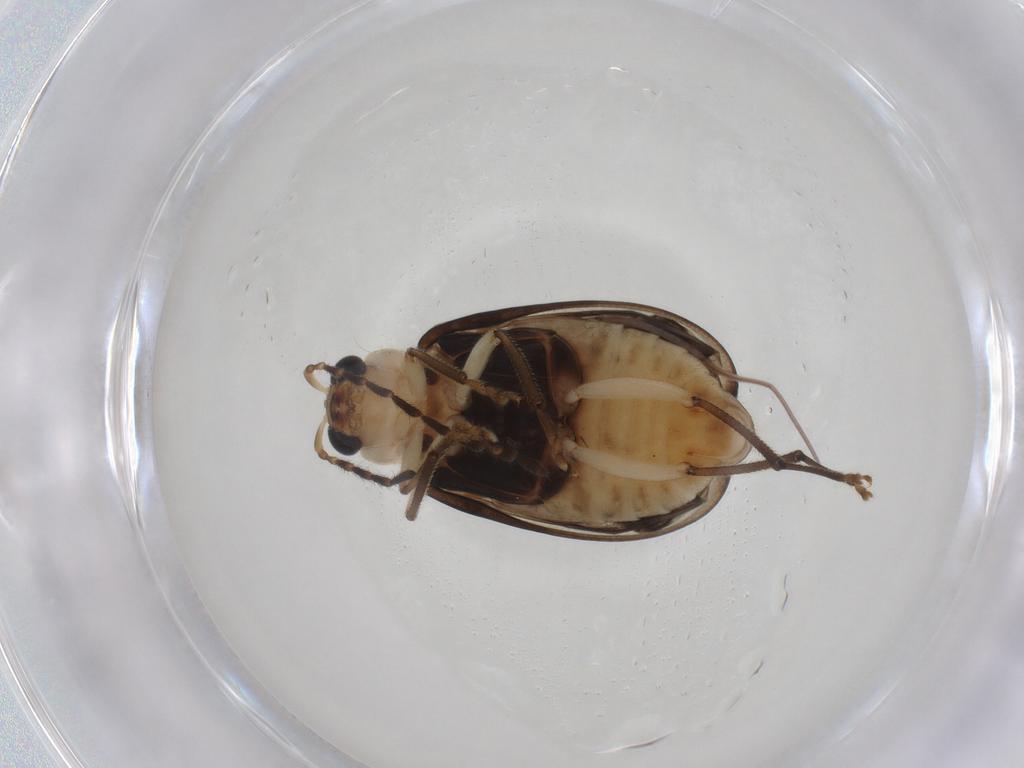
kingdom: Animalia
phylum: Arthropoda
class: Insecta
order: Coleoptera
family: Chrysomelidae
